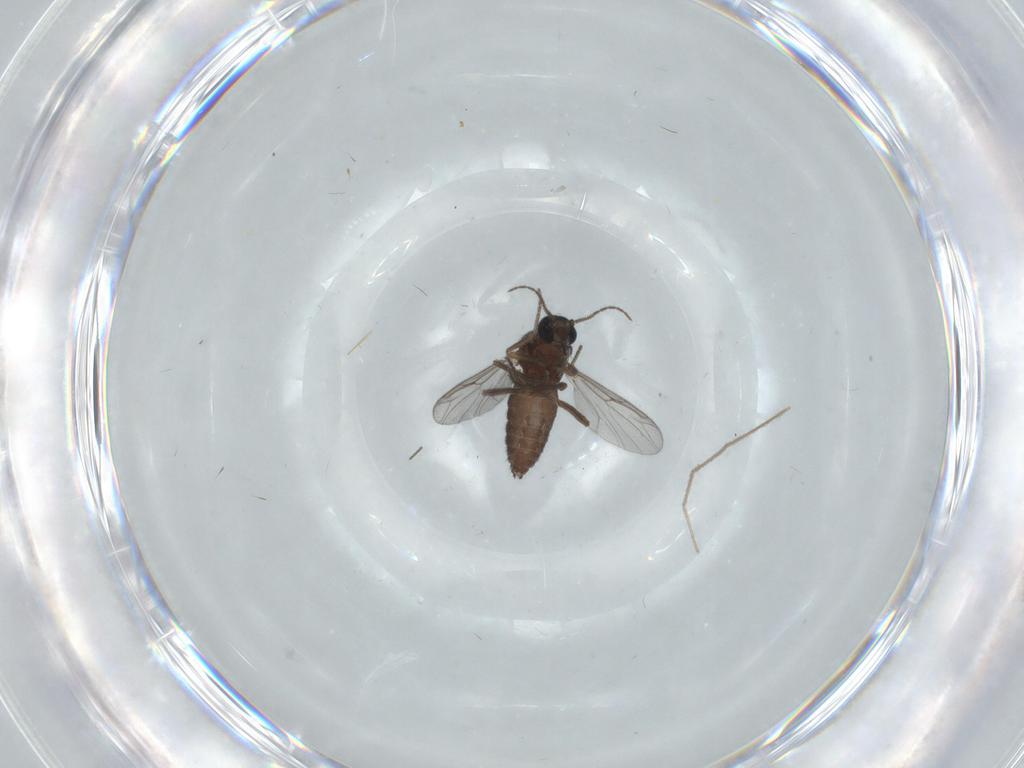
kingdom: Animalia
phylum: Arthropoda
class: Insecta
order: Diptera
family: Ceratopogonidae
